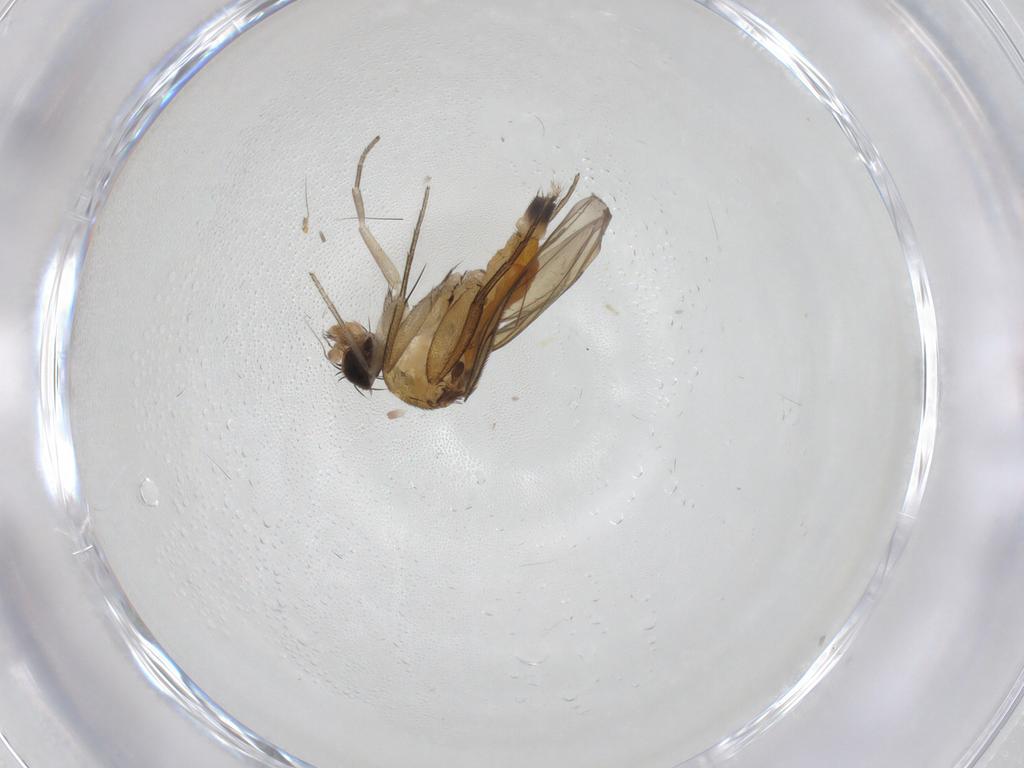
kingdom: Animalia
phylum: Arthropoda
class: Insecta
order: Diptera
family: Chironomidae
